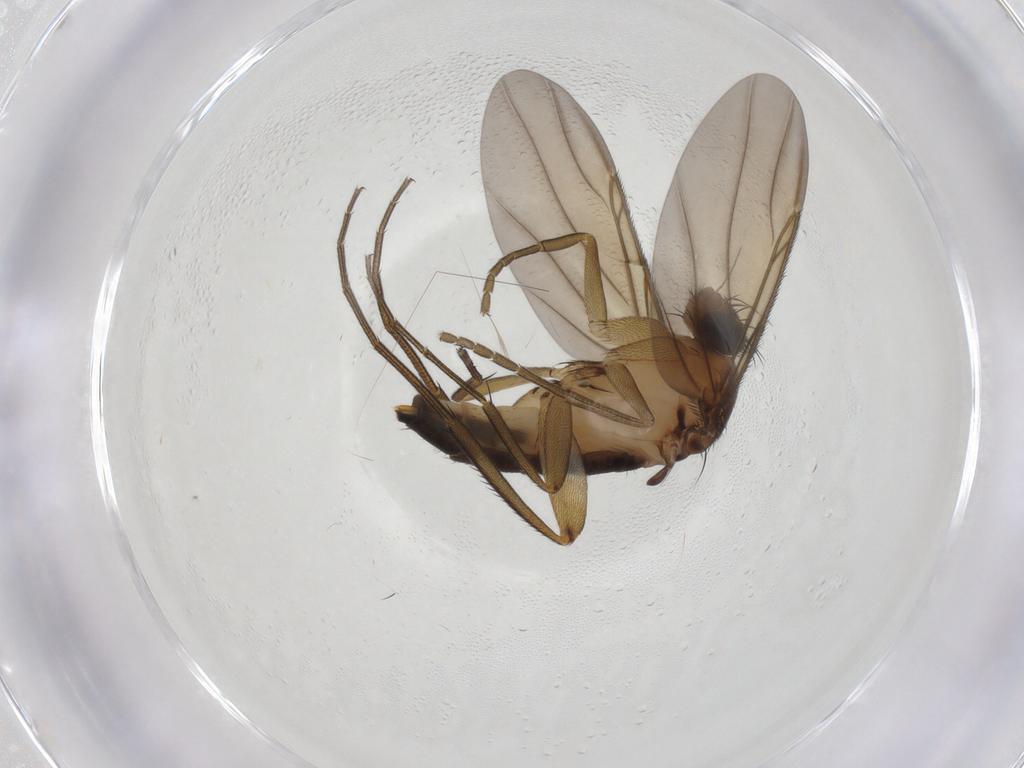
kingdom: Animalia
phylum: Arthropoda
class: Insecta
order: Diptera
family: Phoridae
